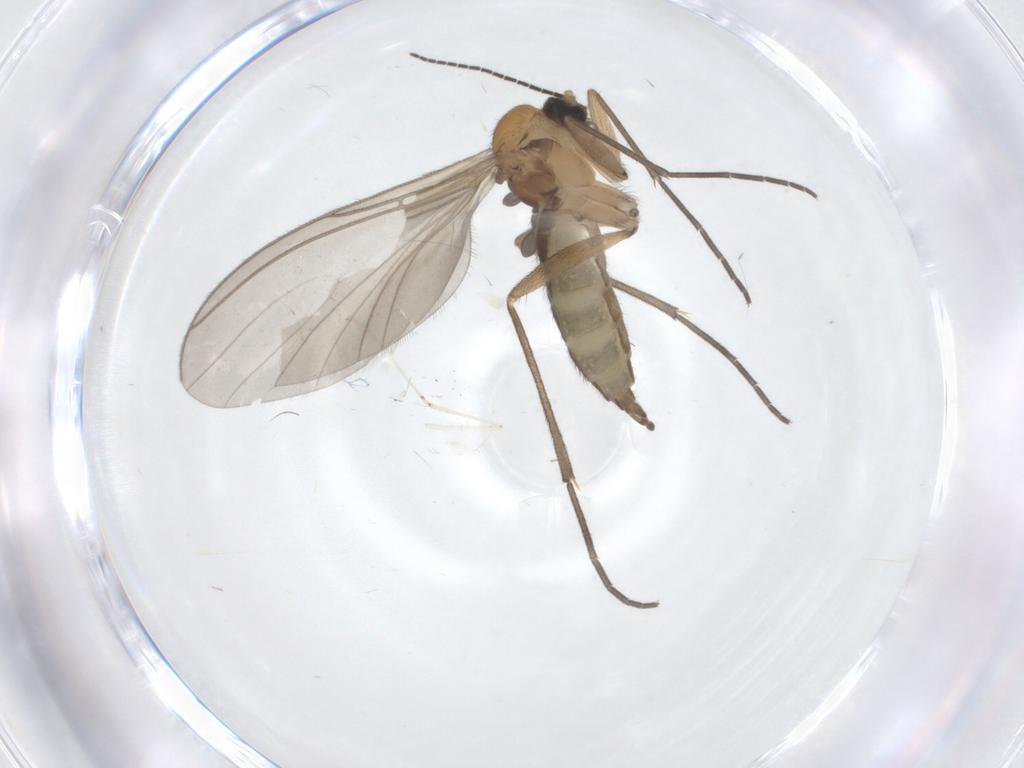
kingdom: Animalia
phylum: Arthropoda
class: Insecta
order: Diptera
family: Sciaridae
